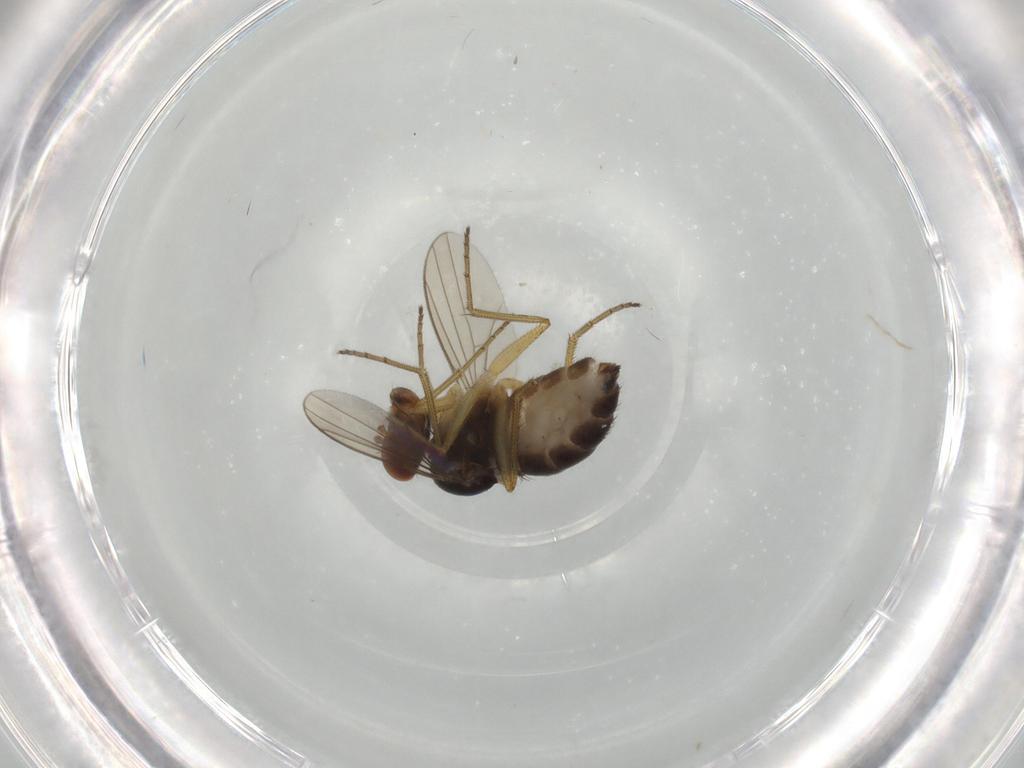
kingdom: Animalia
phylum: Arthropoda
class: Insecta
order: Diptera
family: Dolichopodidae
